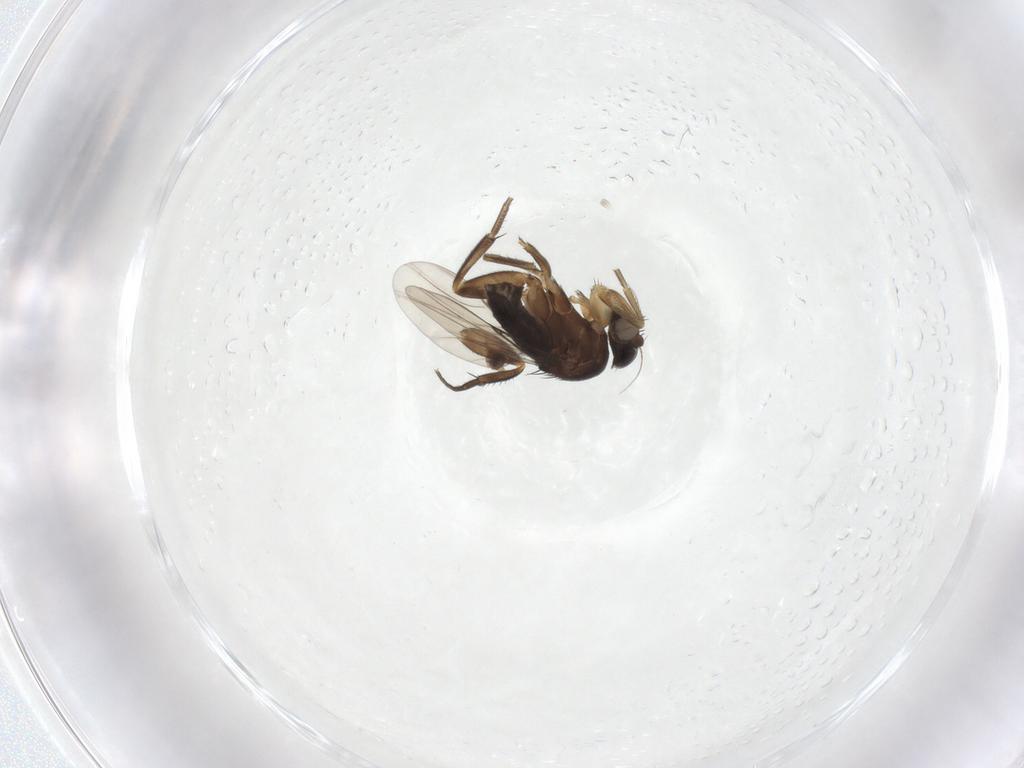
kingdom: Animalia
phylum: Arthropoda
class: Insecta
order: Diptera
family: Phoridae
